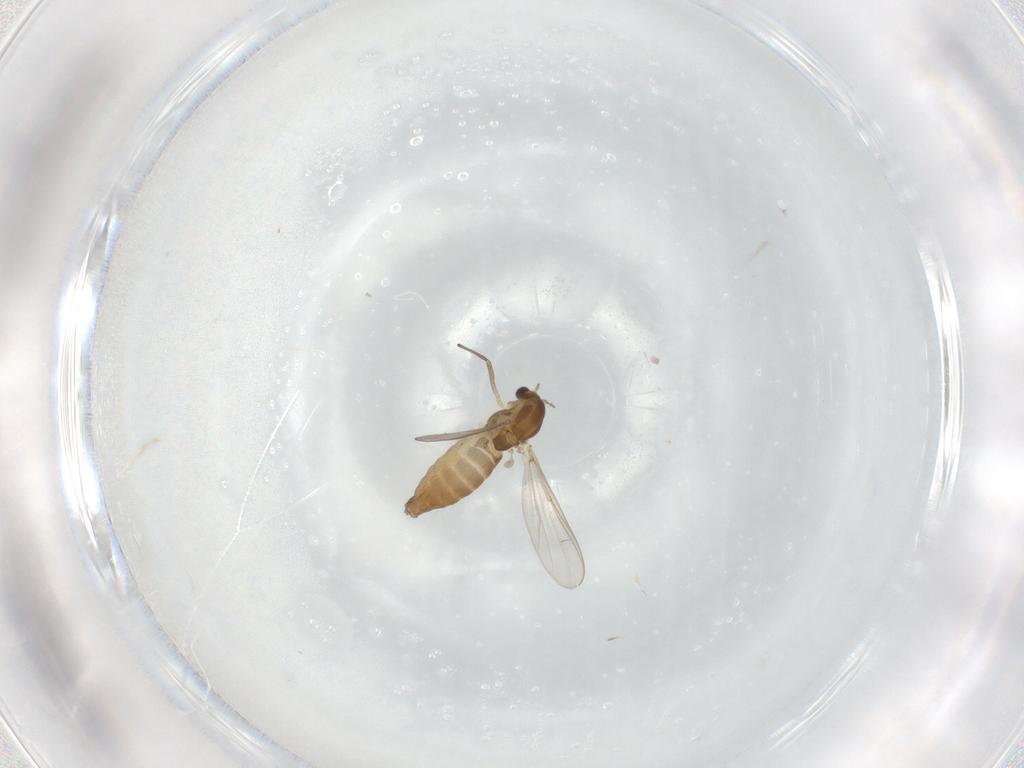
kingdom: Animalia
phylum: Arthropoda
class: Insecta
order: Diptera
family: Chironomidae
